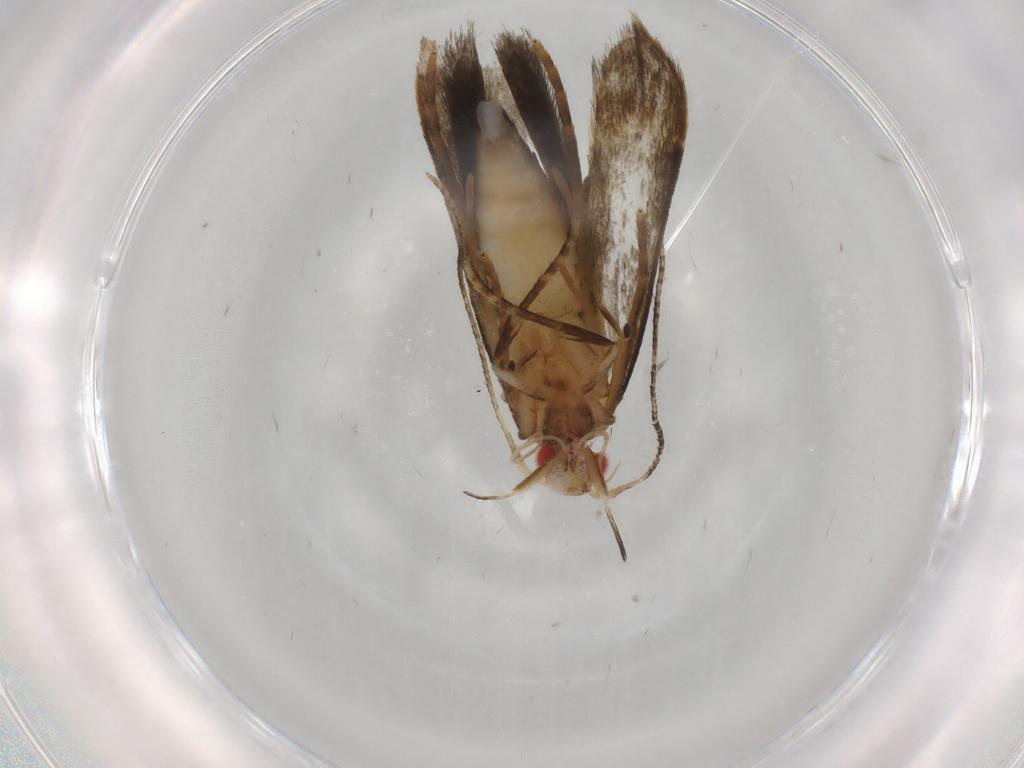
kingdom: Animalia
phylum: Arthropoda
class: Insecta
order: Lepidoptera
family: Gelechiidae
